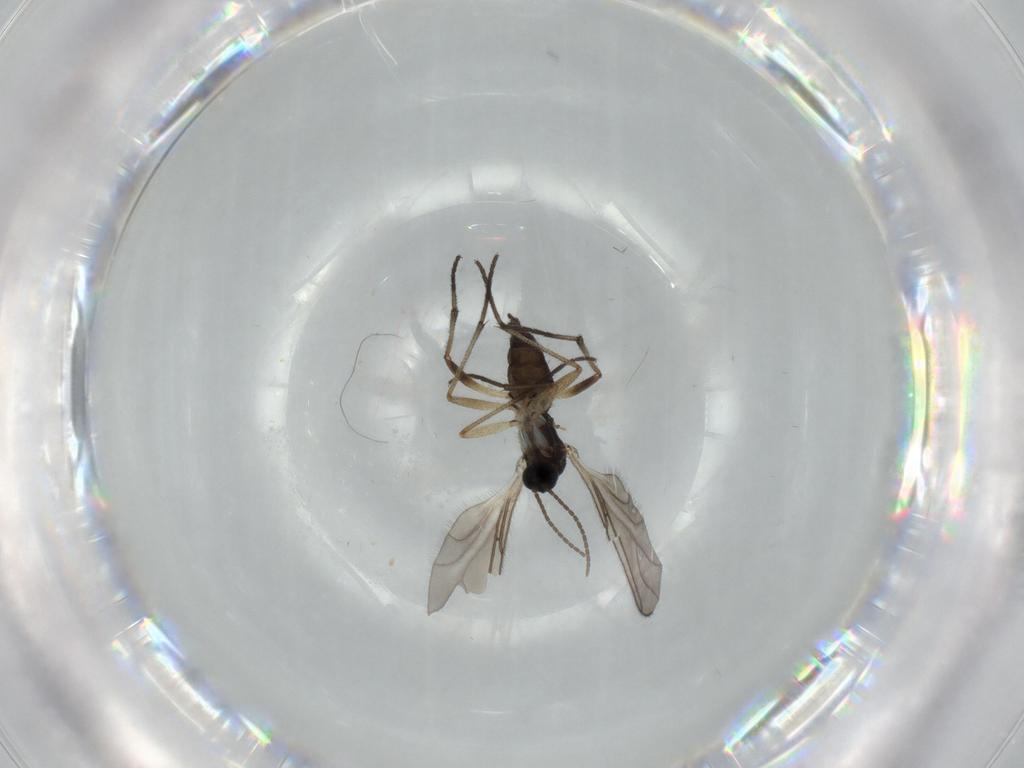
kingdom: Animalia
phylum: Arthropoda
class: Insecta
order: Diptera
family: Sciaridae
